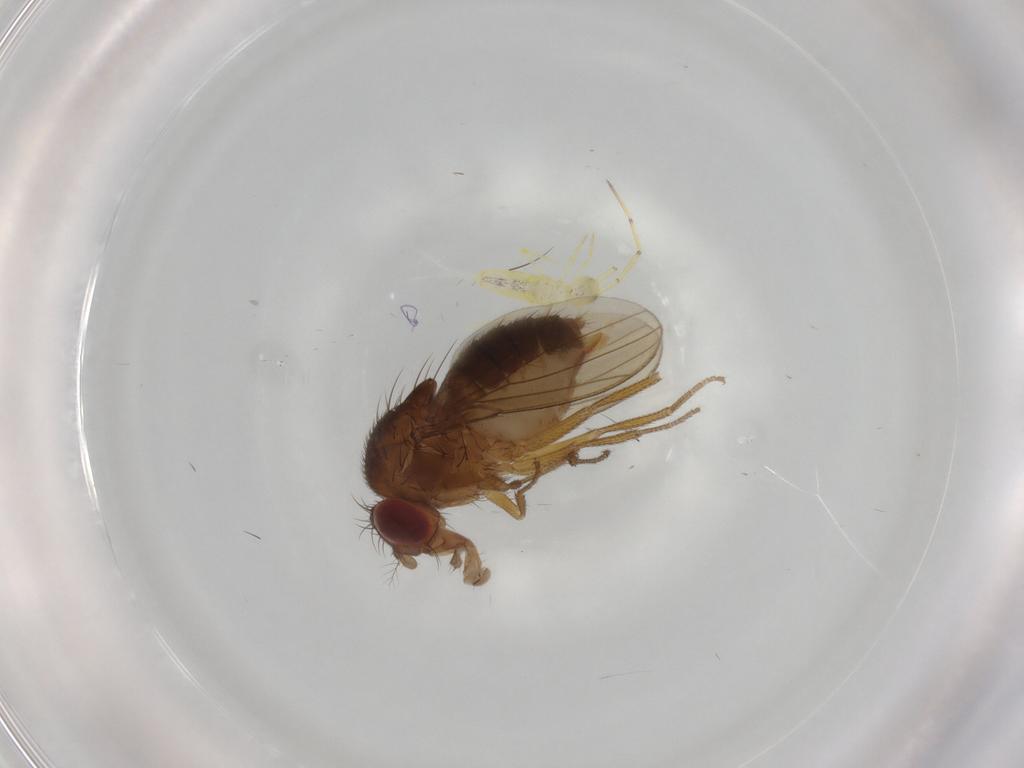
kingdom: Animalia
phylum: Arthropoda
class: Insecta
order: Diptera
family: Drosophilidae
